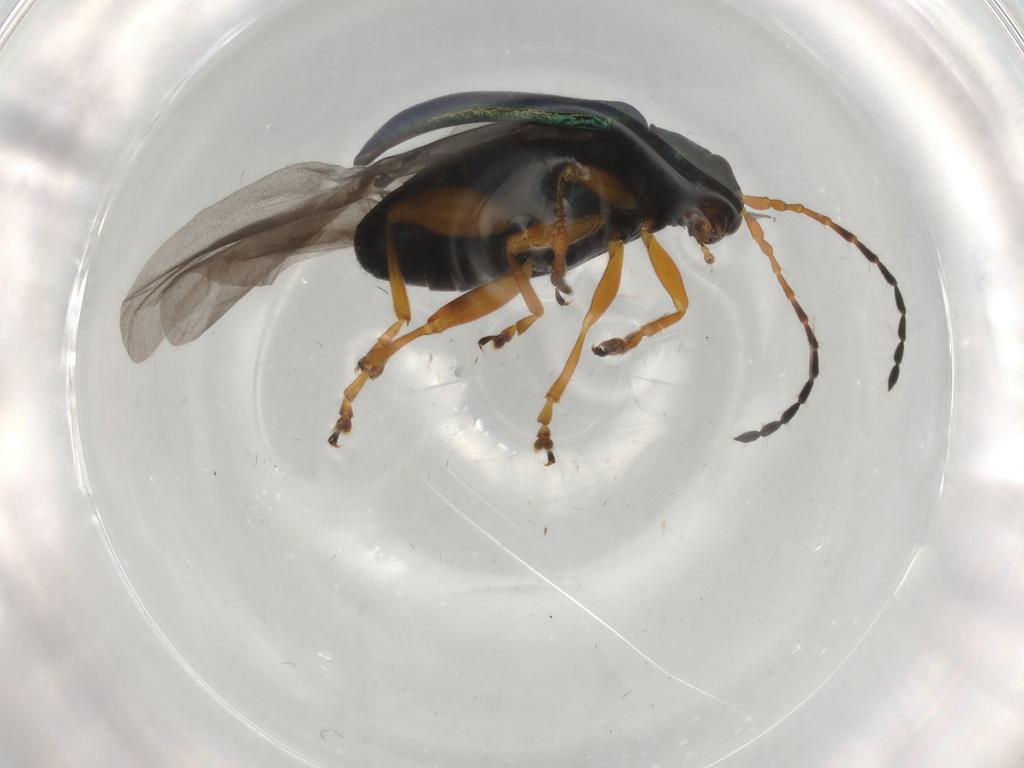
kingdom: Animalia
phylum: Arthropoda
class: Insecta
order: Coleoptera
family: Chrysomelidae
